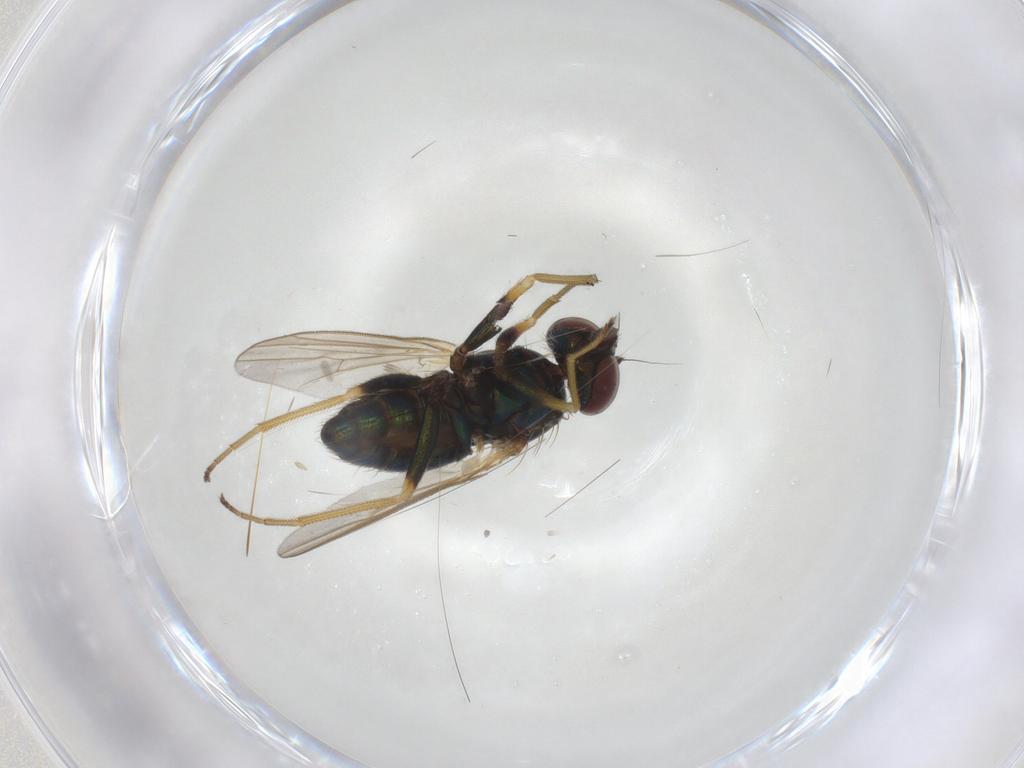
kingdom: Animalia
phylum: Arthropoda
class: Insecta
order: Diptera
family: Dolichopodidae
